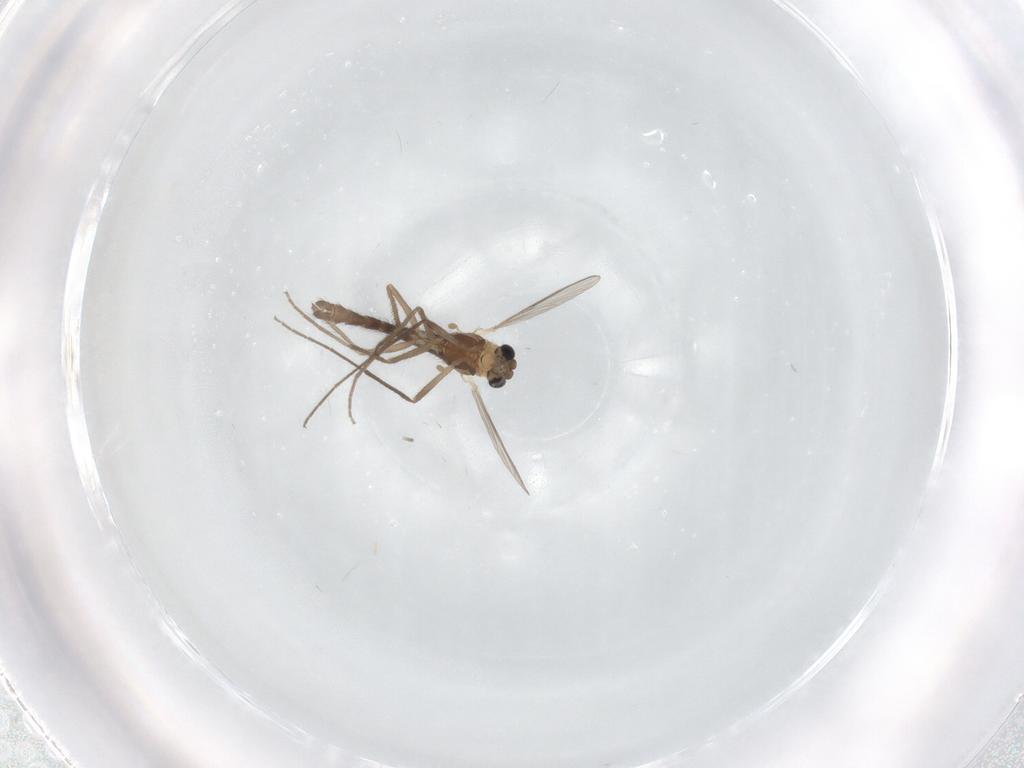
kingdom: Animalia
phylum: Arthropoda
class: Insecta
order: Diptera
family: Chironomidae
